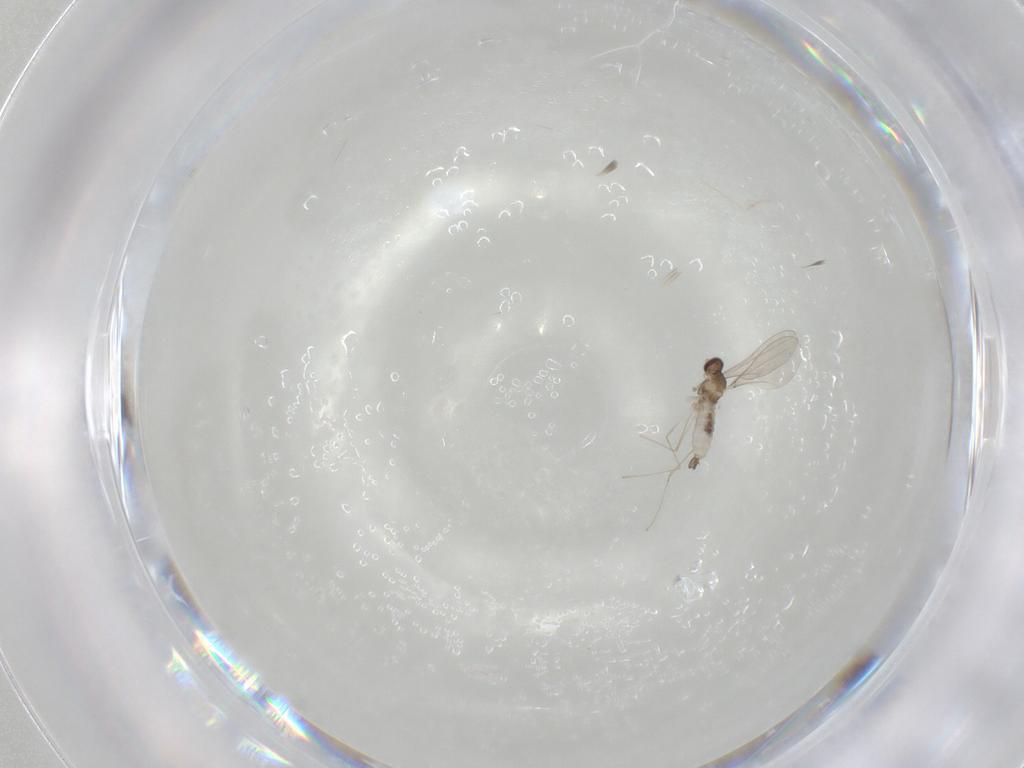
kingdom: Animalia
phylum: Arthropoda
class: Insecta
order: Diptera
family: Cecidomyiidae
